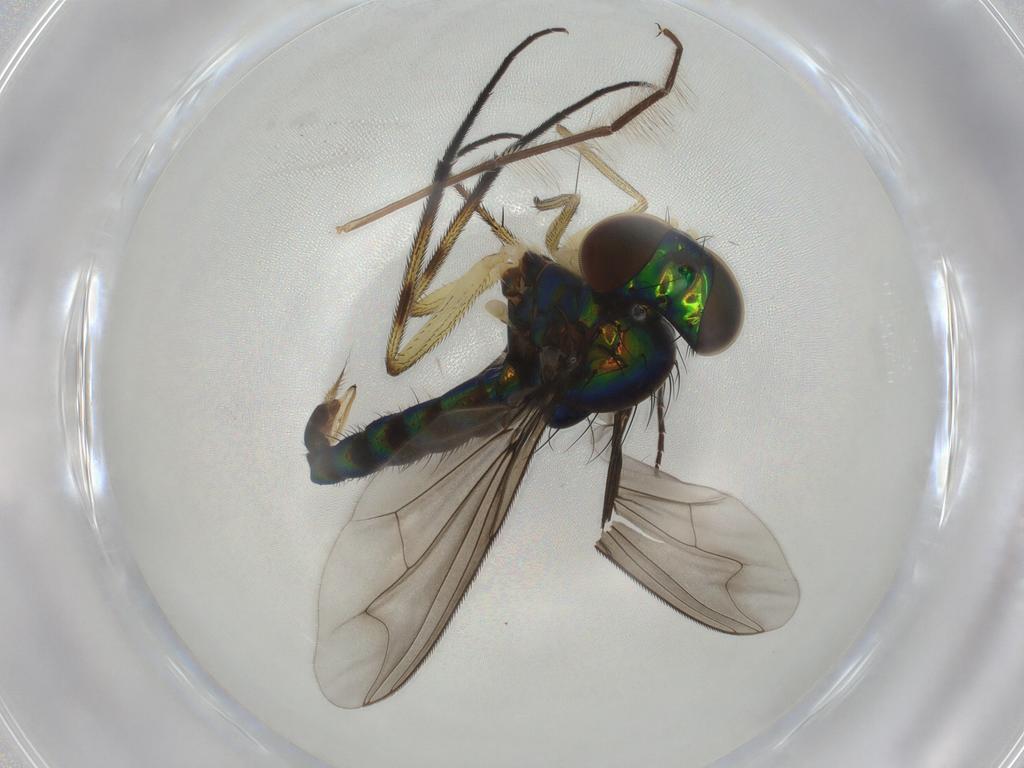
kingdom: Animalia
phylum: Arthropoda
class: Insecta
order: Diptera
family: Dolichopodidae
